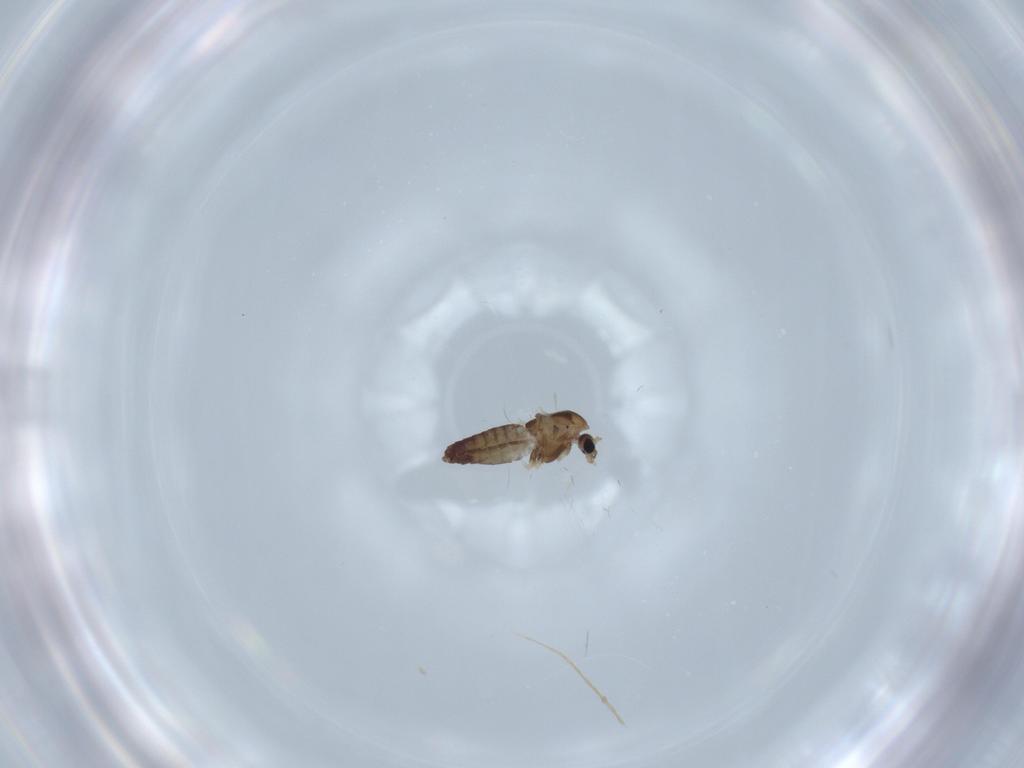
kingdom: Animalia
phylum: Arthropoda
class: Insecta
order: Diptera
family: Chironomidae
